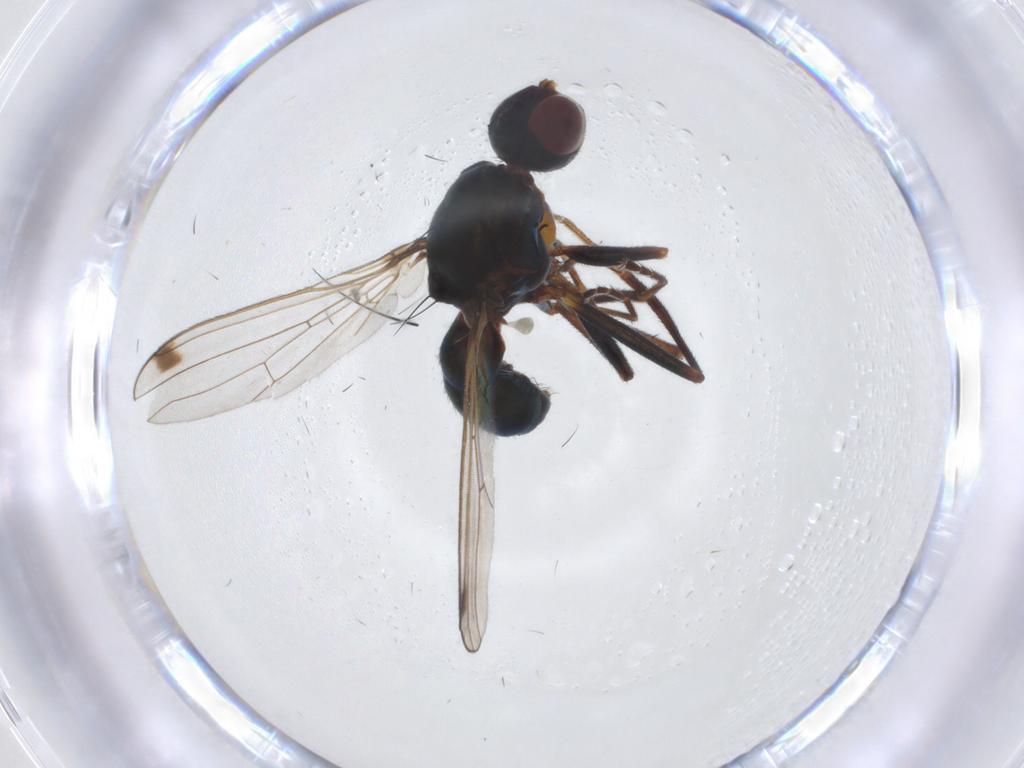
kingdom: Animalia
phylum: Arthropoda
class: Insecta
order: Diptera
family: Sepsidae
